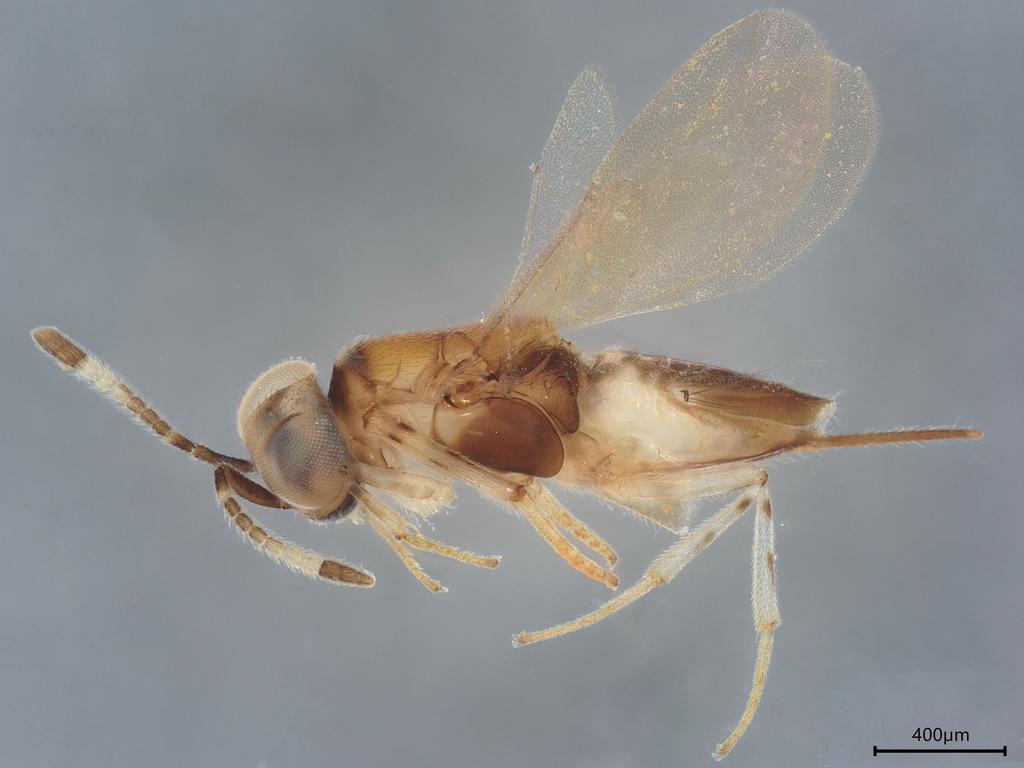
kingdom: Animalia
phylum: Arthropoda
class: Insecta
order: Hymenoptera
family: Encyrtidae
